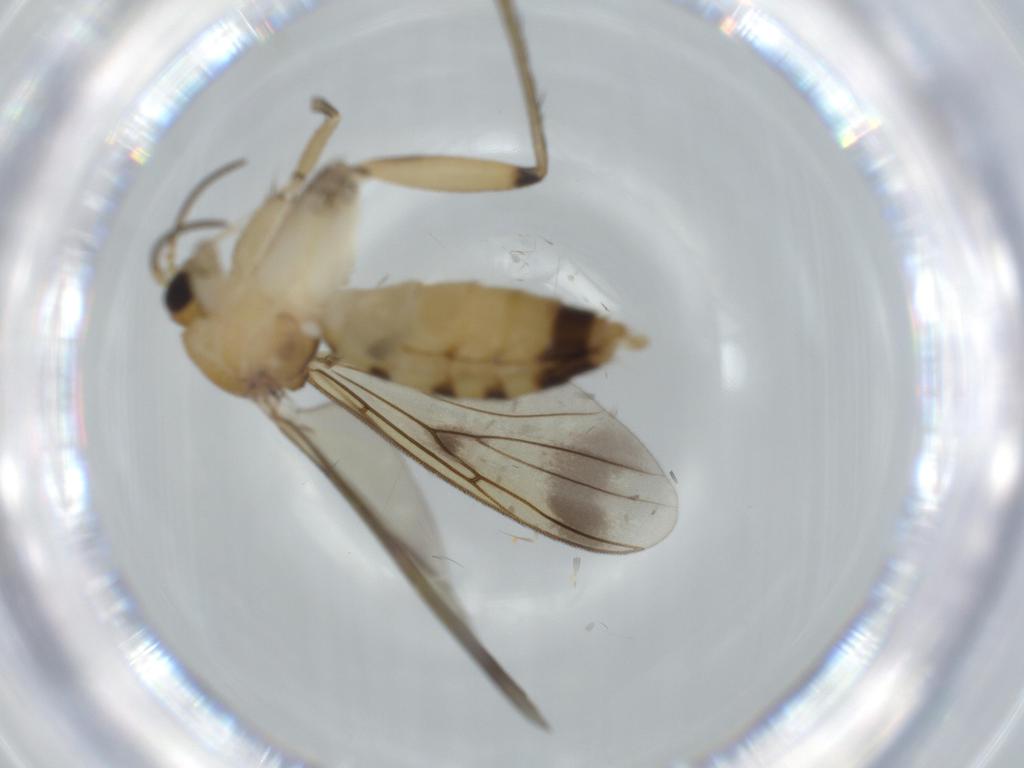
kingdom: Animalia
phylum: Arthropoda
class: Insecta
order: Diptera
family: Agromyzidae
